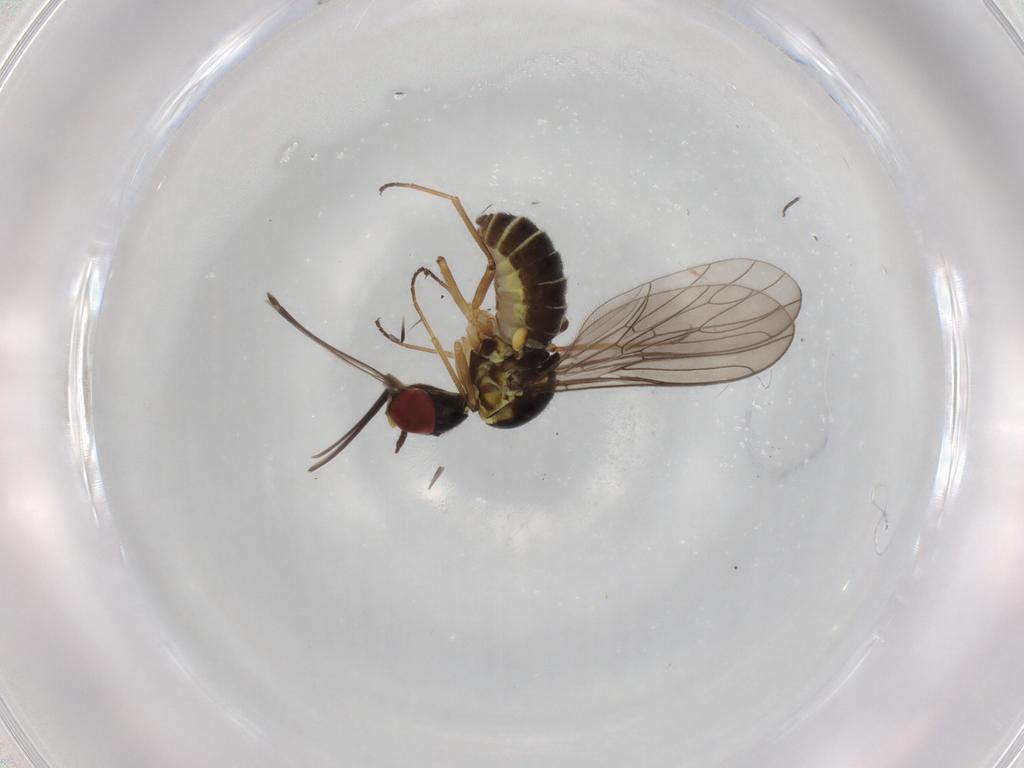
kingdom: Animalia
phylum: Arthropoda
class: Insecta
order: Diptera
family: Mythicomyiidae
